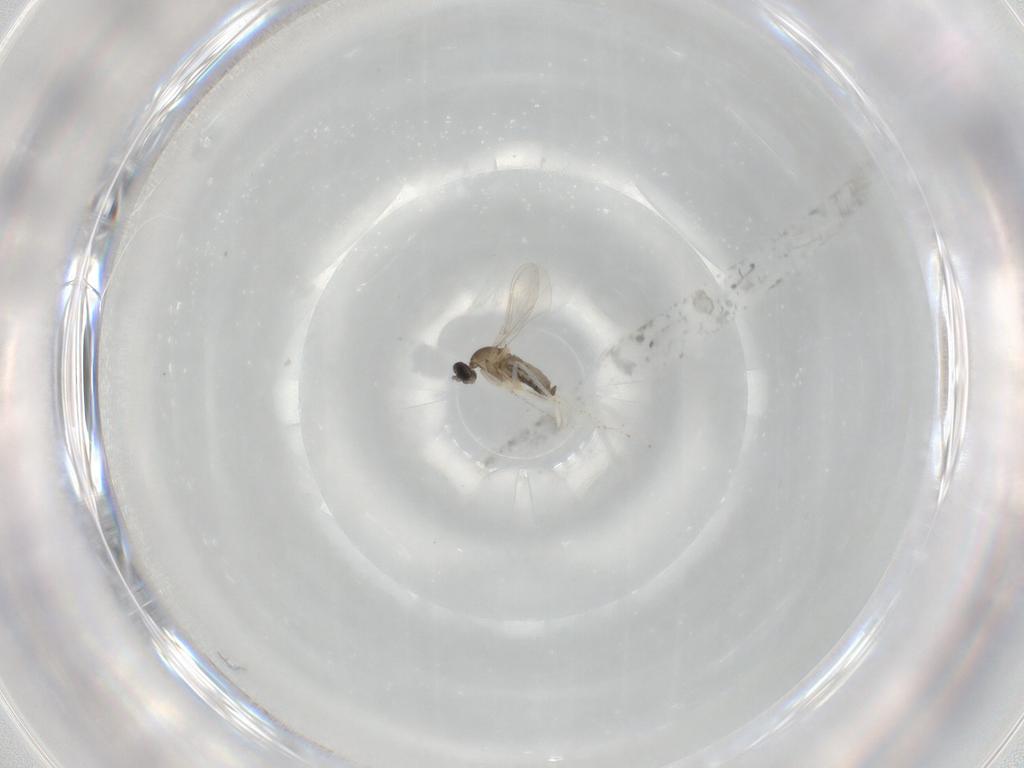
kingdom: Animalia
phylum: Arthropoda
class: Insecta
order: Diptera
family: Cecidomyiidae
